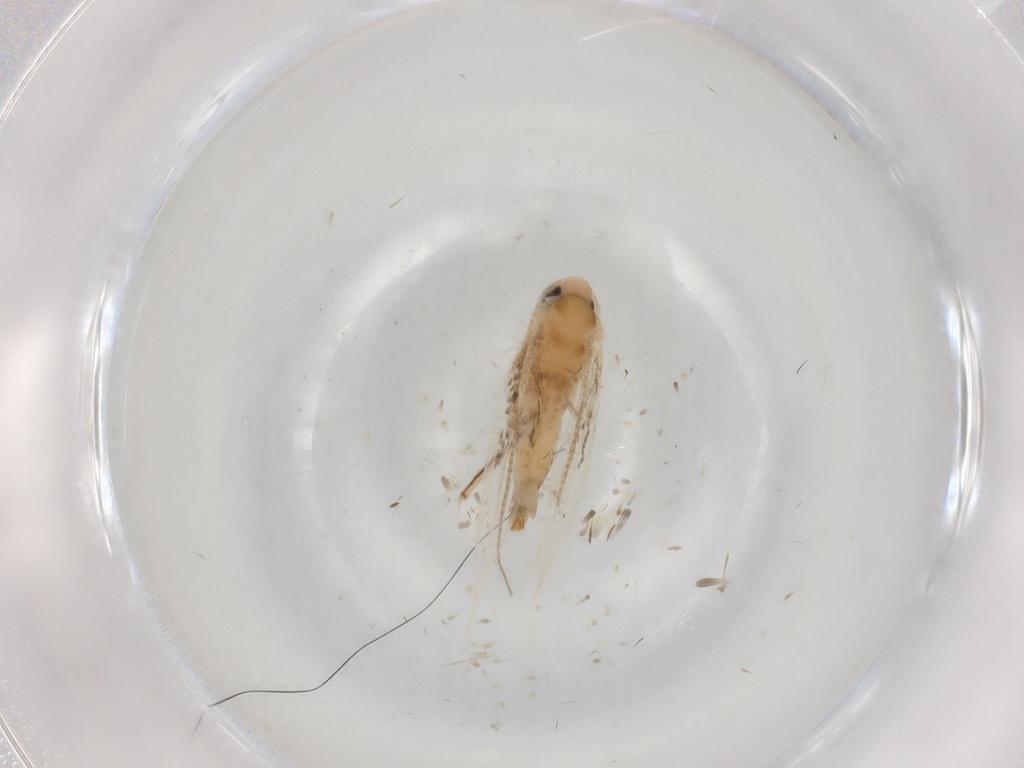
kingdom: Animalia
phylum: Arthropoda
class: Insecta
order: Lepidoptera
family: Gracillariidae
